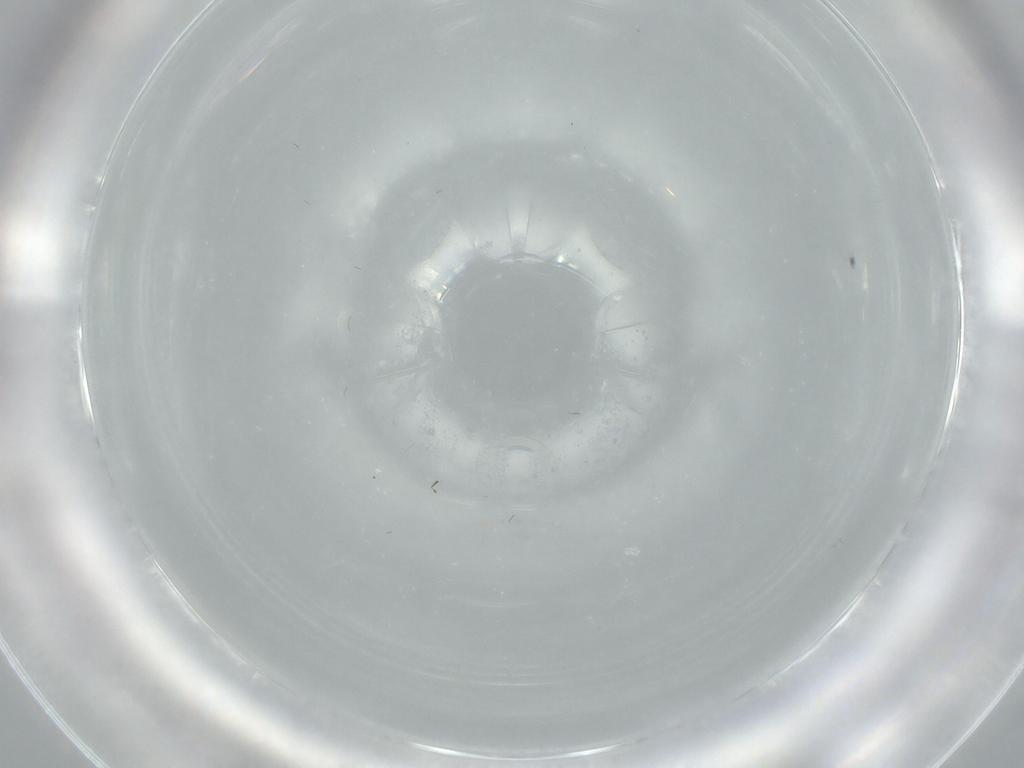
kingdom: Animalia
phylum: Arthropoda
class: Insecta
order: Diptera
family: Cecidomyiidae
